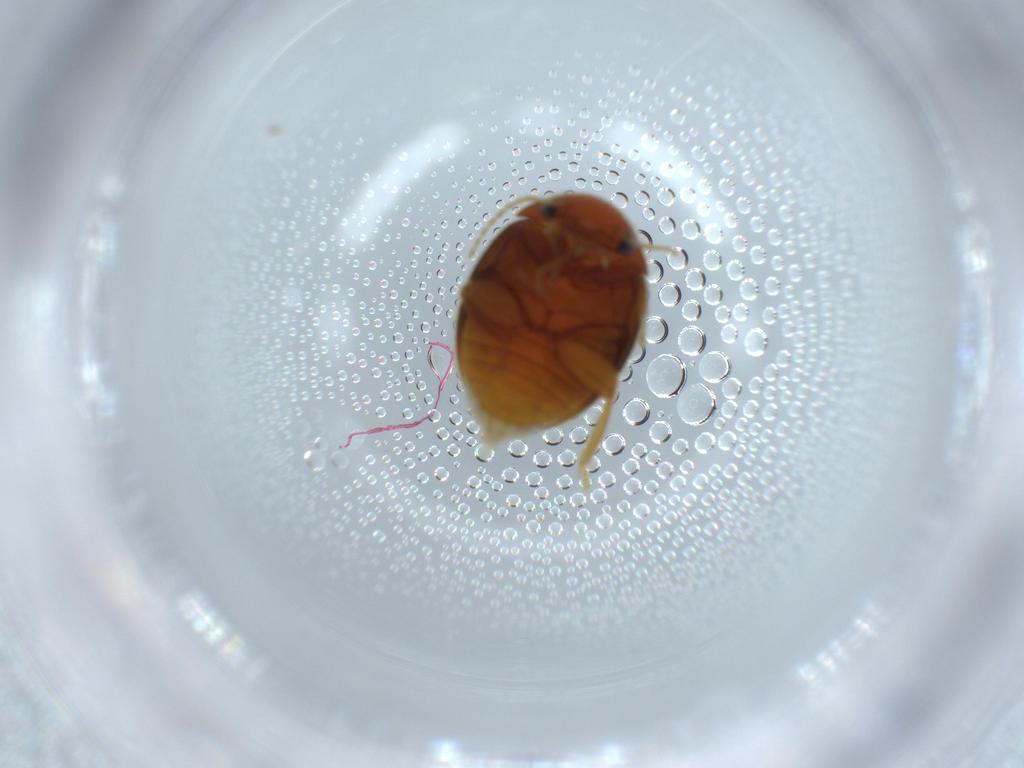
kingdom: Animalia
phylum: Arthropoda
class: Insecta
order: Coleoptera
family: Scirtidae
